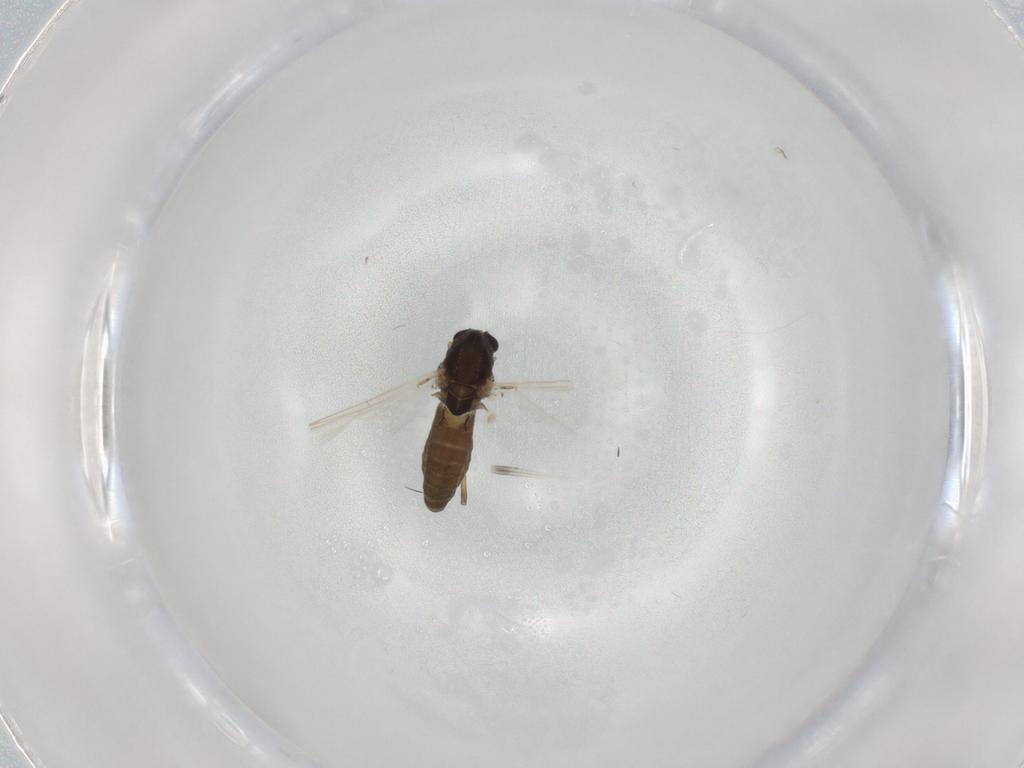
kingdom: Animalia
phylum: Arthropoda
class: Insecta
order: Diptera
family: Chironomidae
